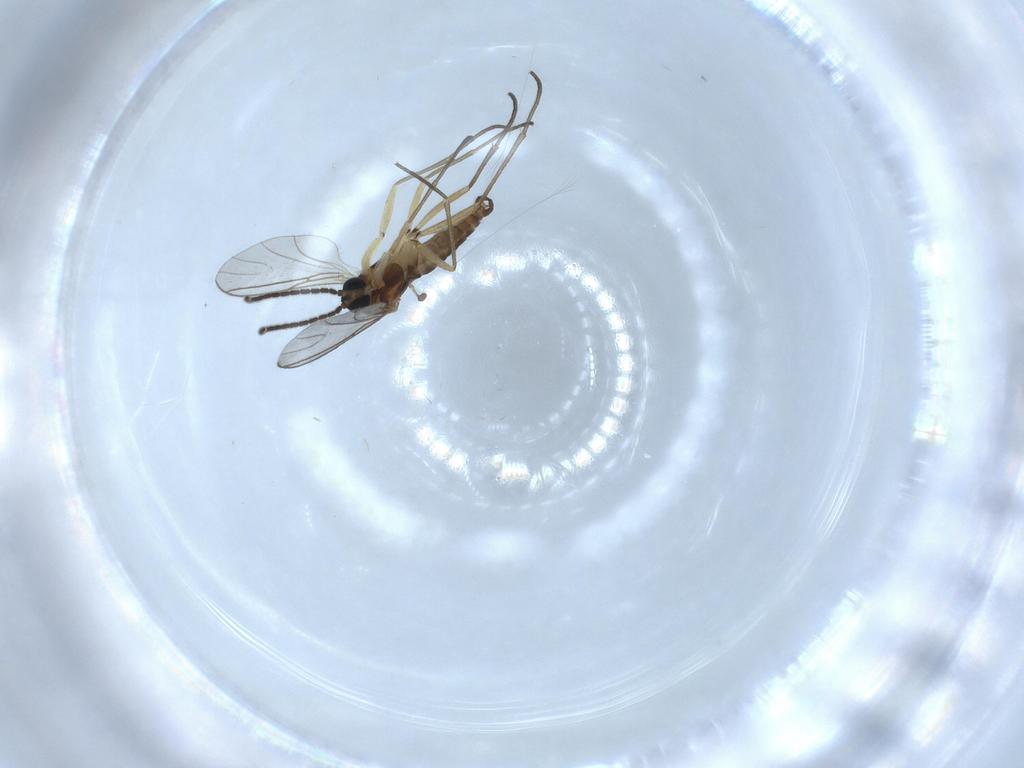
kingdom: Animalia
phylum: Arthropoda
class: Insecta
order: Diptera
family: Sciaridae
